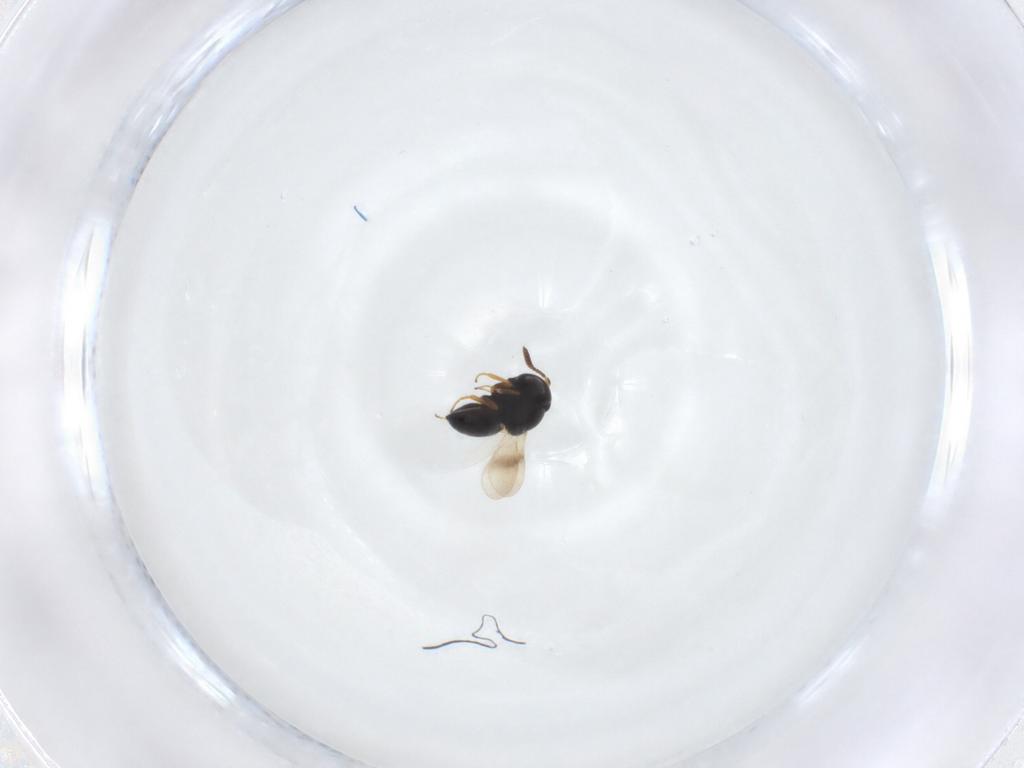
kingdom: Animalia
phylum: Arthropoda
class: Insecta
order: Hymenoptera
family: Scelionidae
